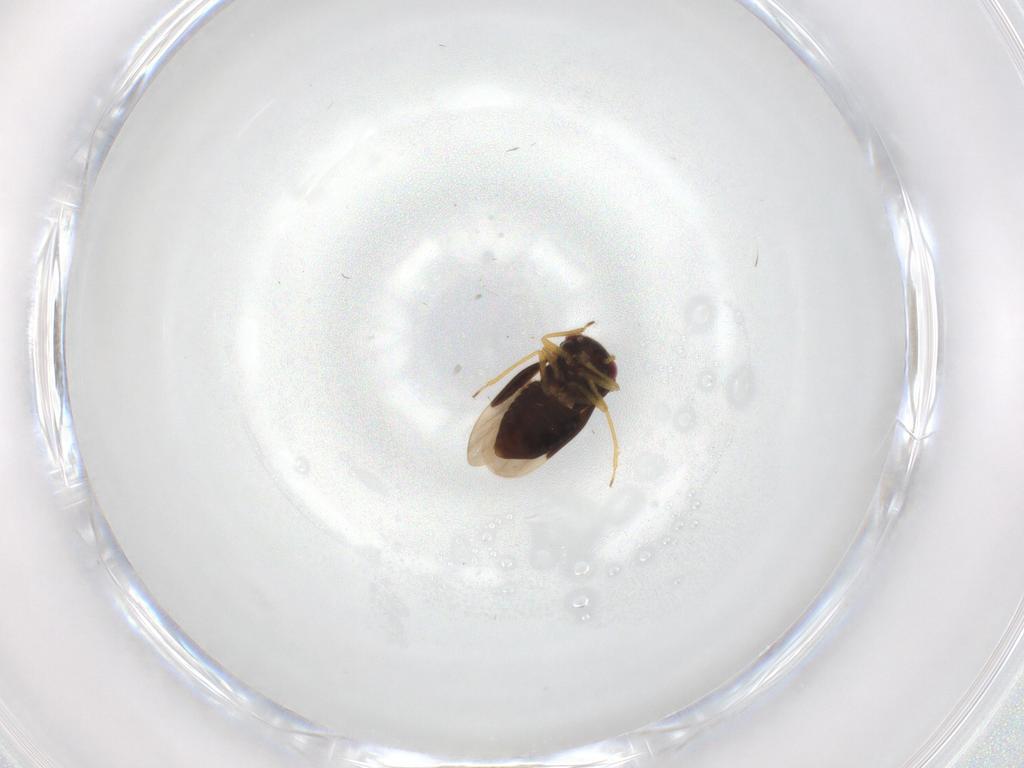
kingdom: Animalia
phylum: Arthropoda
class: Insecta
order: Hemiptera
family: Schizopteridae
